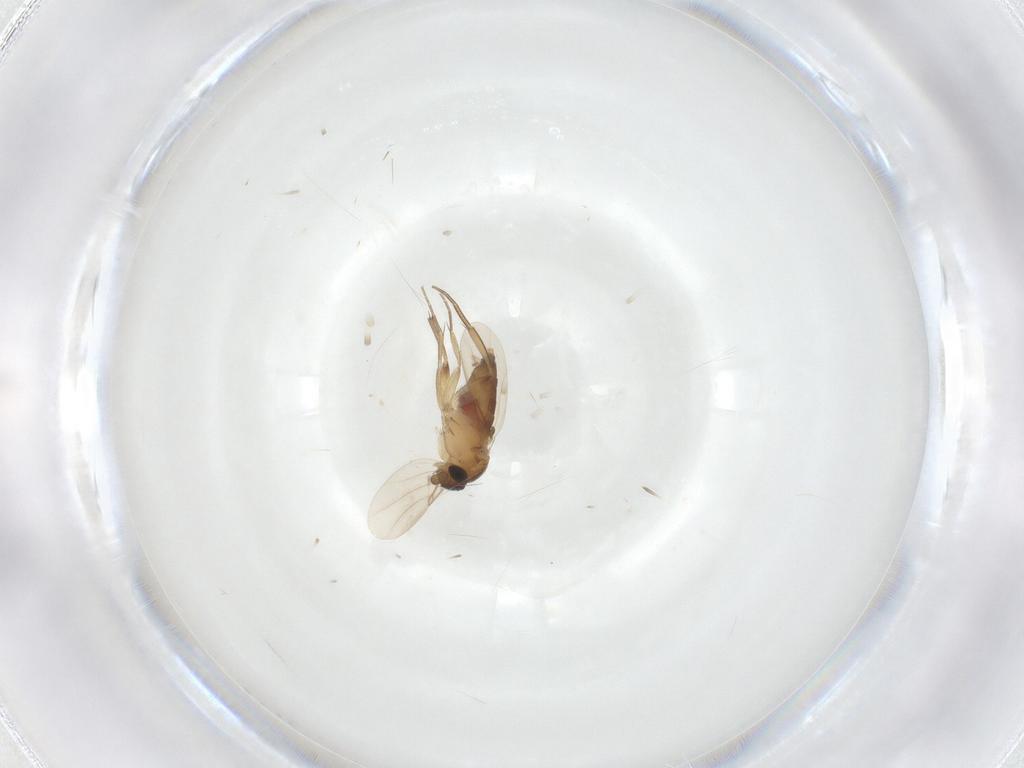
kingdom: Animalia
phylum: Arthropoda
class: Insecta
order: Diptera
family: Phoridae
